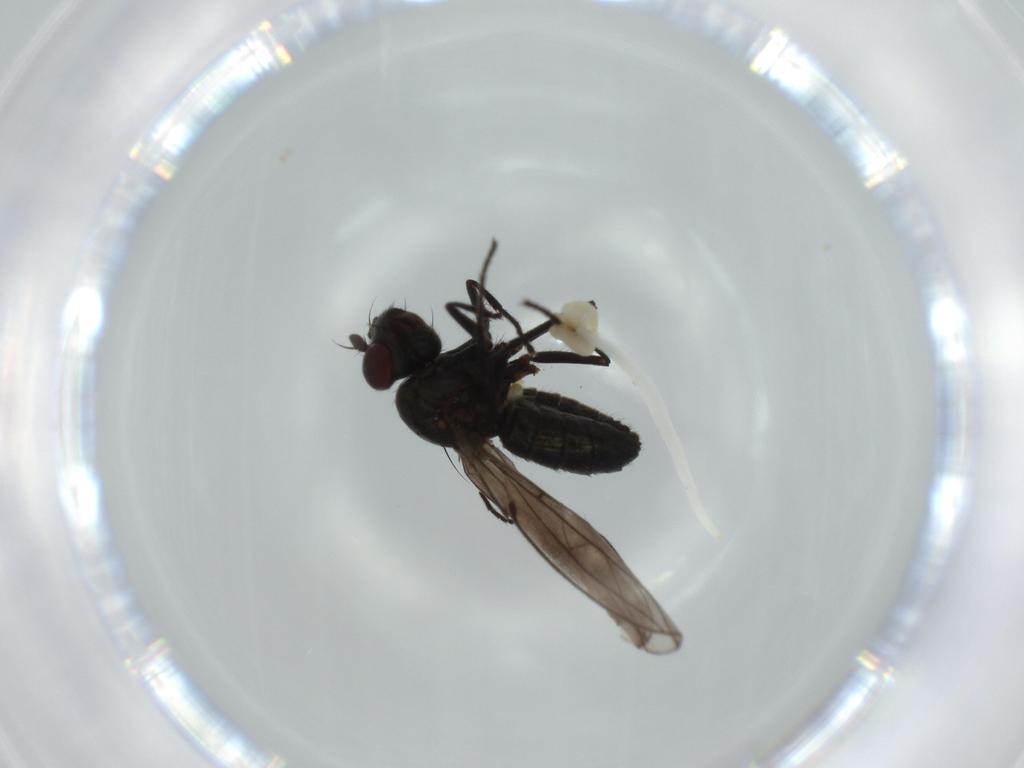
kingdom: Animalia
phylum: Arthropoda
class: Insecta
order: Diptera
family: Ephydridae
